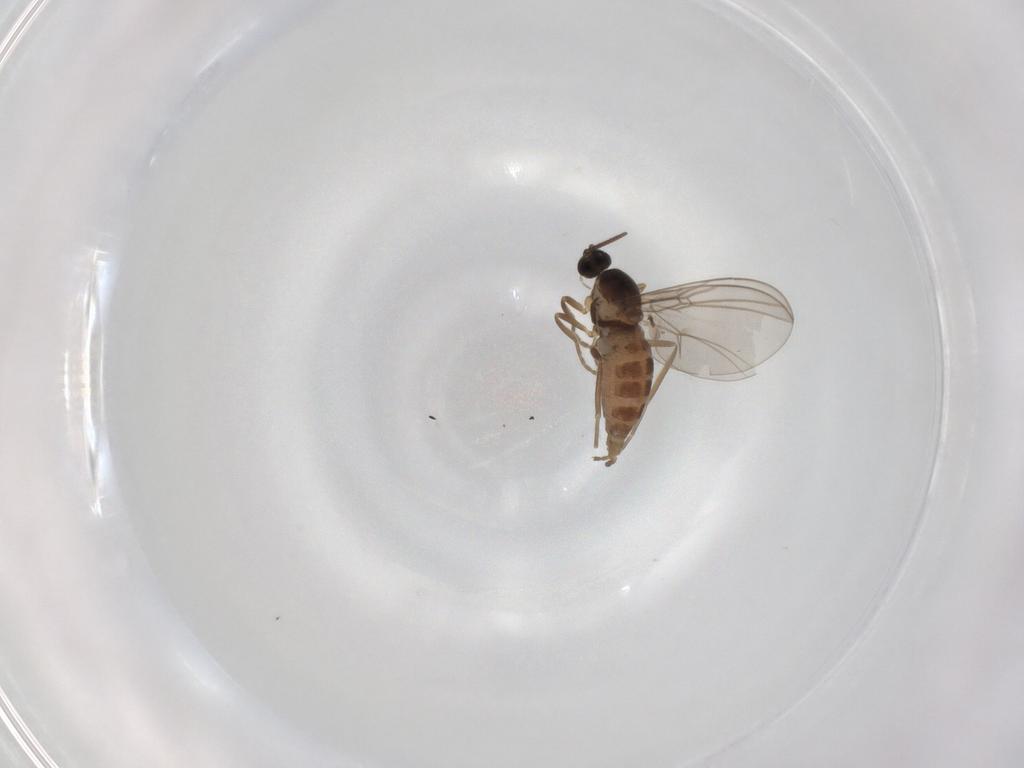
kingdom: Animalia
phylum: Arthropoda
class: Insecta
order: Diptera
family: Cecidomyiidae
